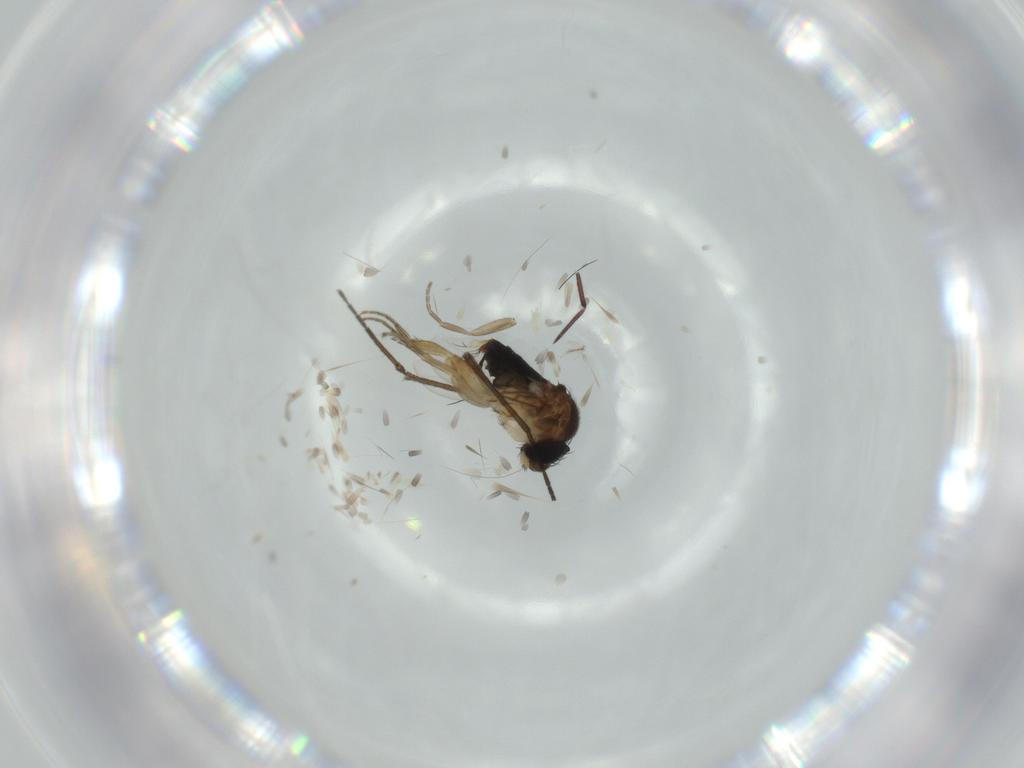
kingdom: Animalia
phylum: Arthropoda
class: Insecta
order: Diptera
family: Phoridae
